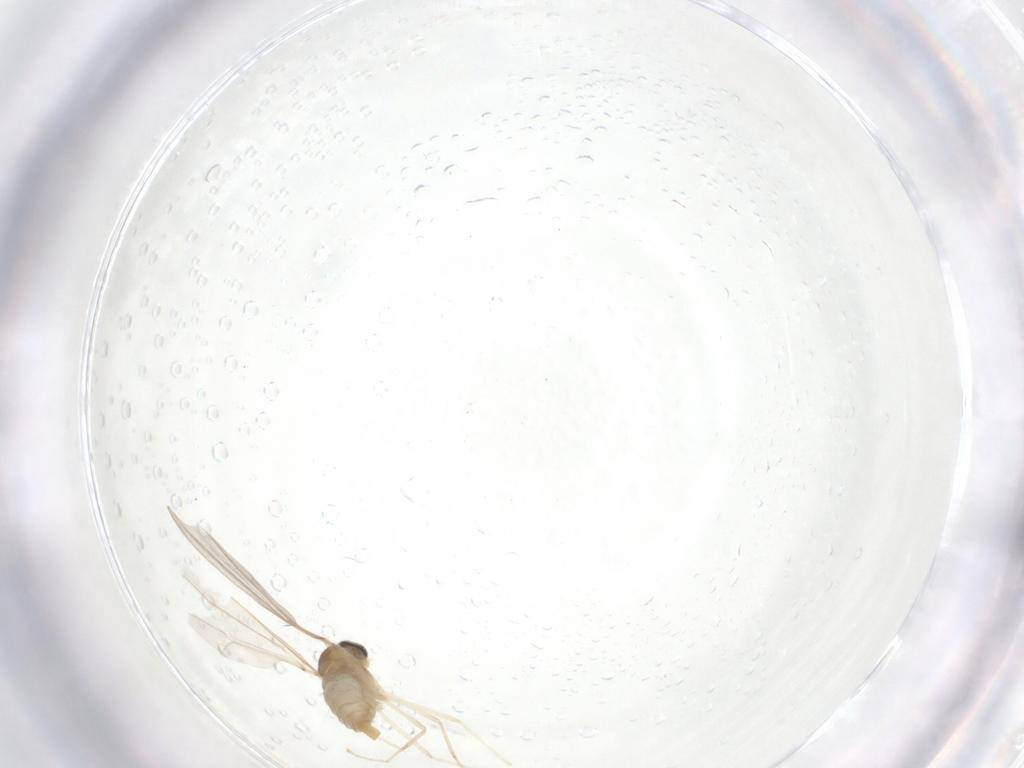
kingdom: Animalia
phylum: Arthropoda
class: Insecta
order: Diptera
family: Cecidomyiidae
